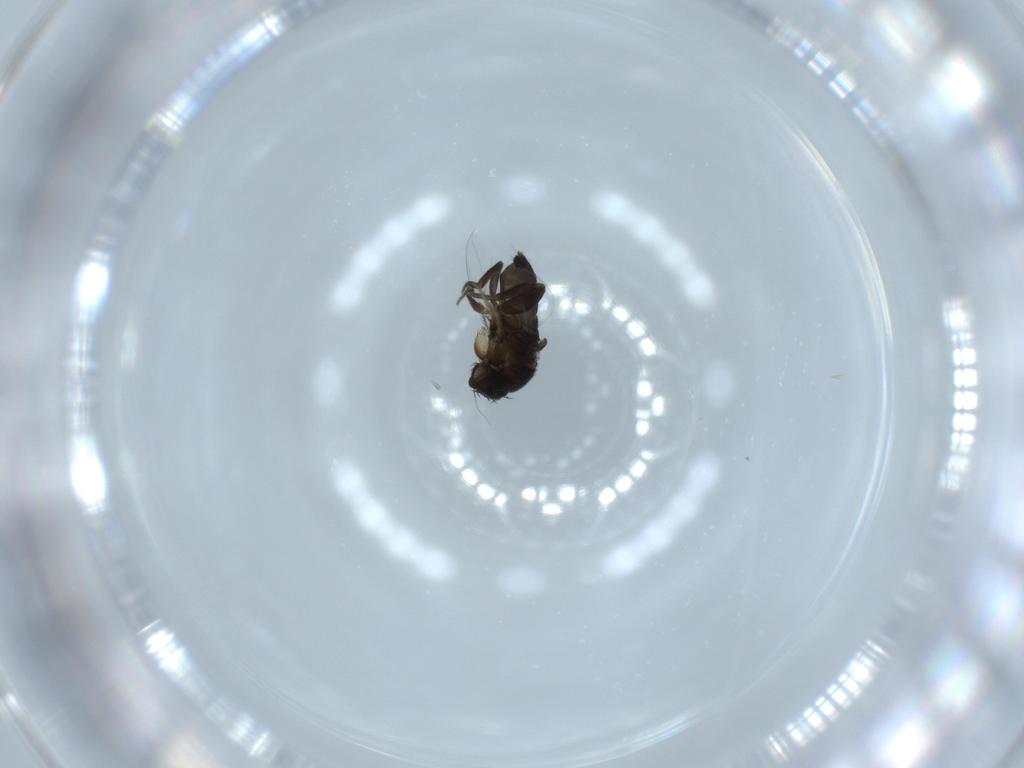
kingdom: Animalia
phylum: Arthropoda
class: Insecta
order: Diptera
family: Phoridae
